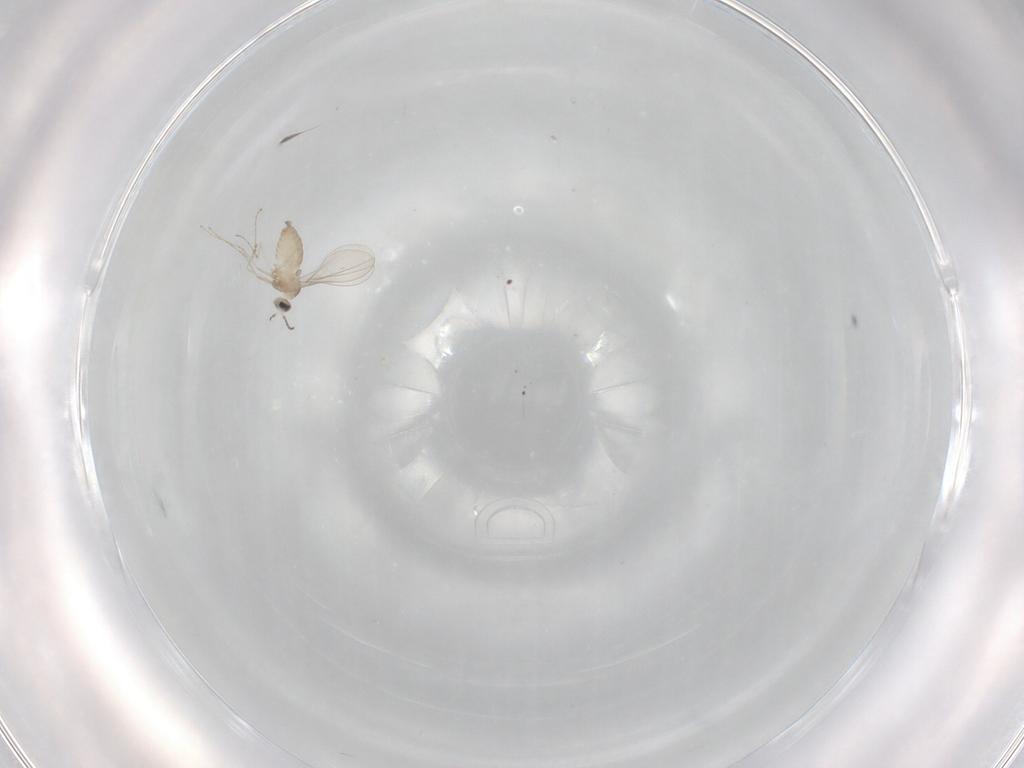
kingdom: Animalia
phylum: Arthropoda
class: Insecta
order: Diptera
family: Cecidomyiidae
